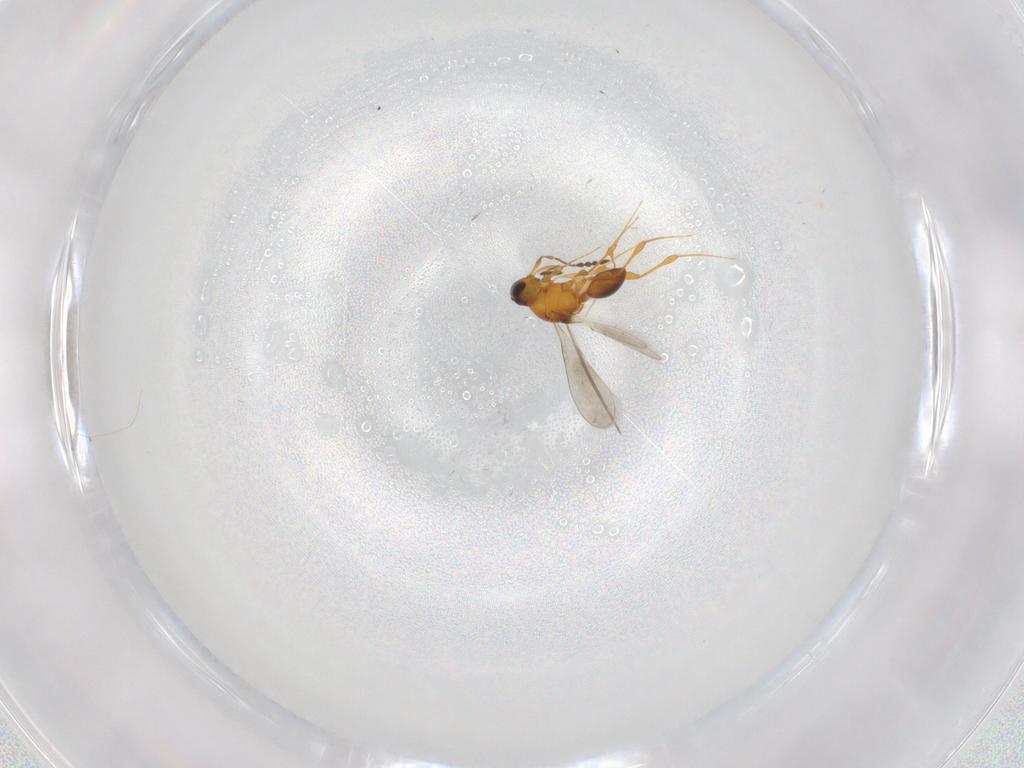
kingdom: Animalia
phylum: Arthropoda
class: Insecta
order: Hymenoptera
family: Platygastridae
